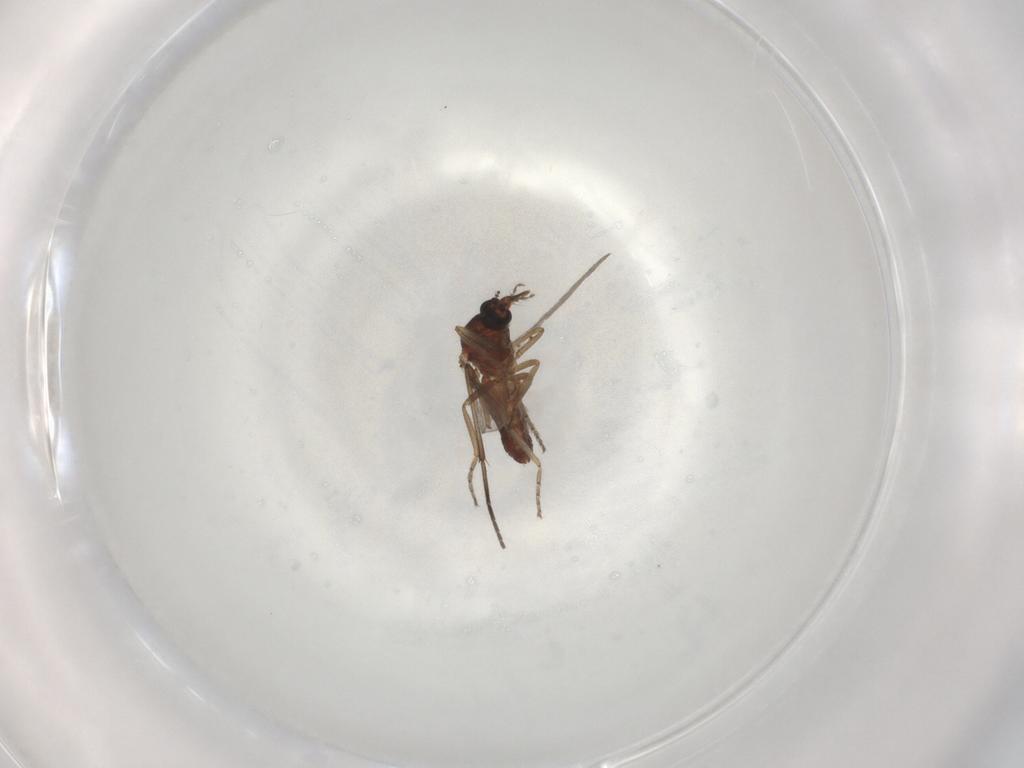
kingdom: Animalia
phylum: Arthropoda
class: Insecta
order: Diptera
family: Ceratopogonidae
